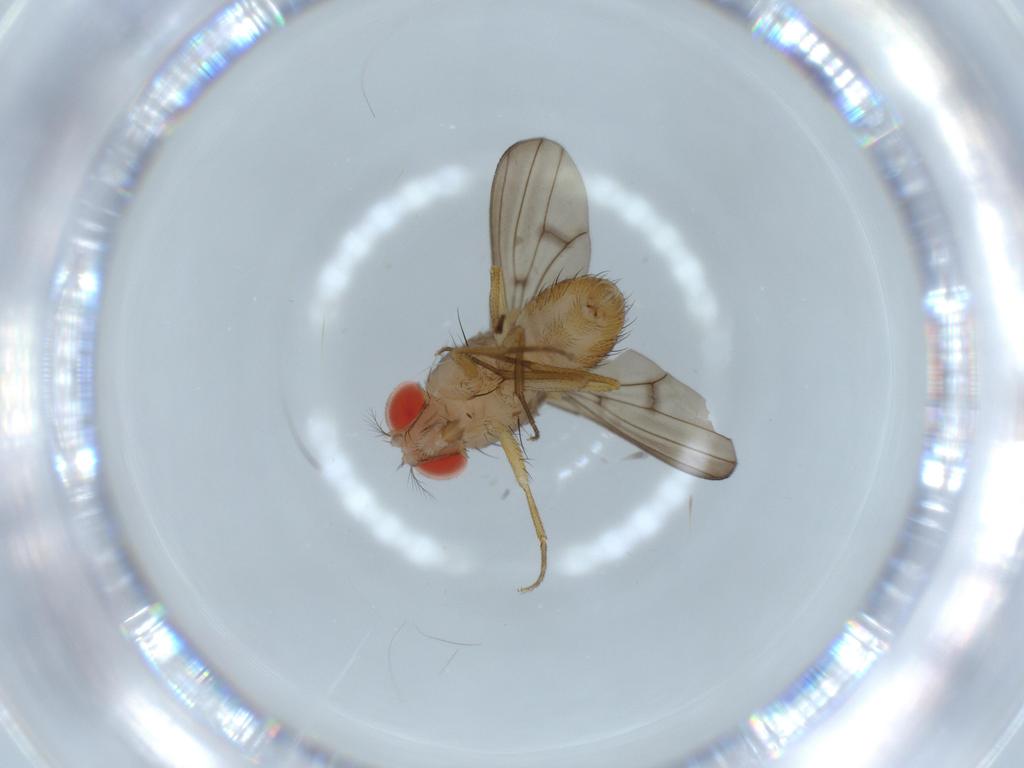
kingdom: Animalia
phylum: Arthropoda
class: Insecta
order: Diptera
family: Drosophilidae
